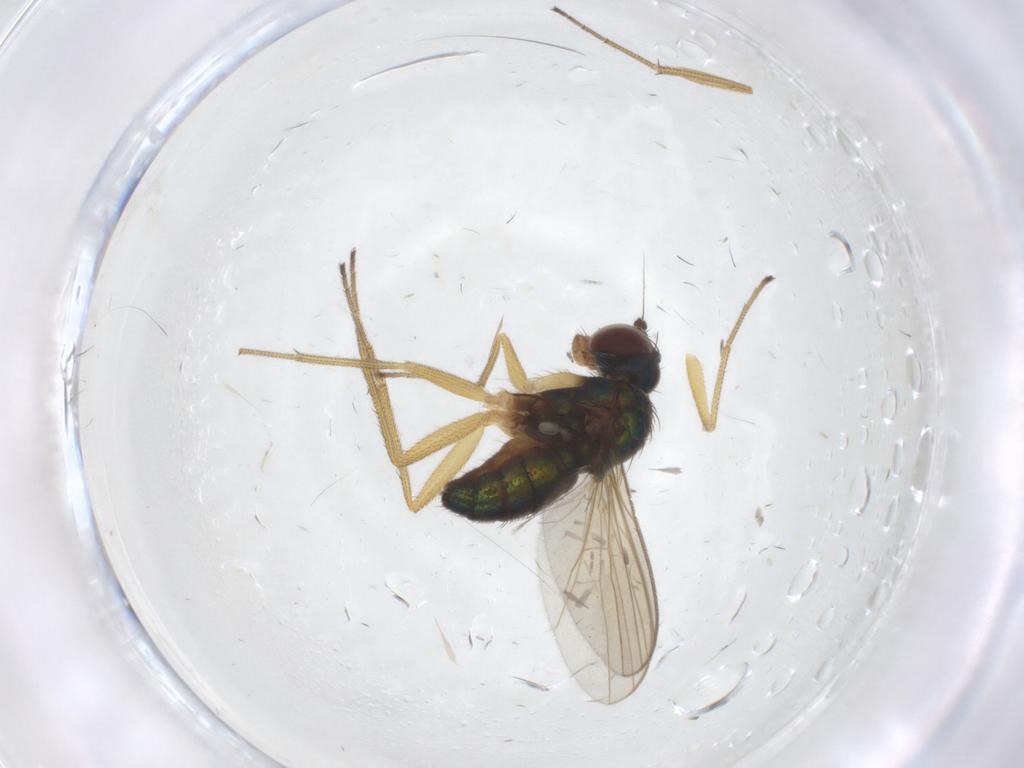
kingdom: Animalia
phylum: Arthropoda
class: Insecta
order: Diptera
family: Dolichopodidae
